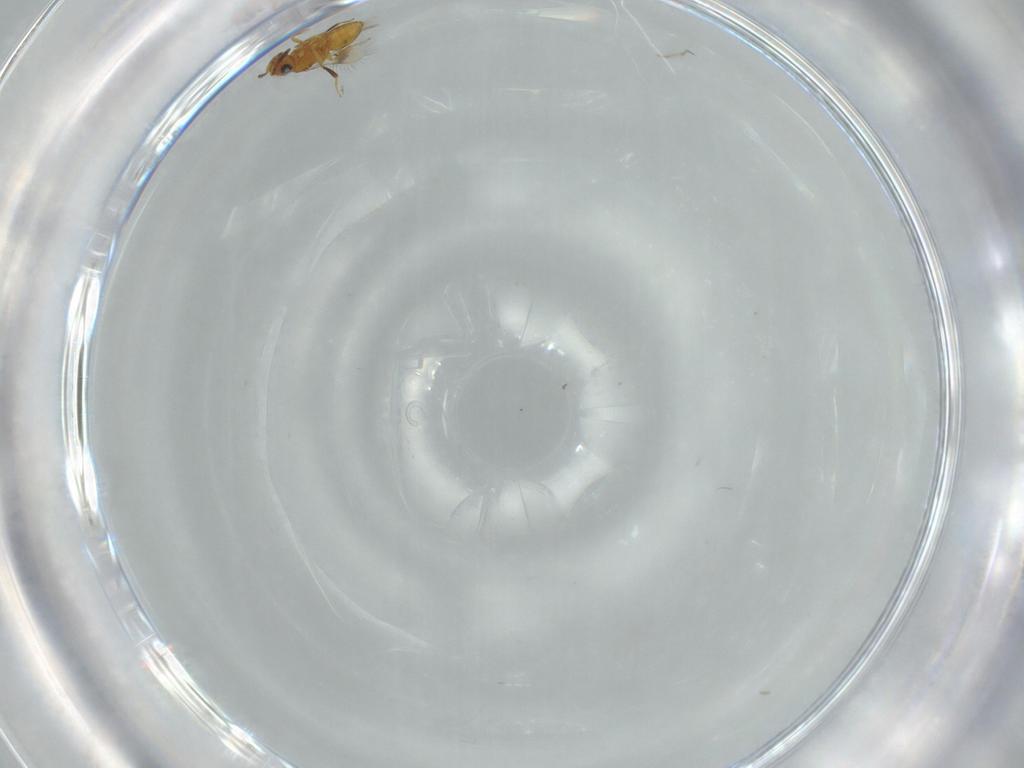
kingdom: Animalia
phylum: Arthropoda
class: Insecta
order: Hymenoptera
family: Scelionidae
